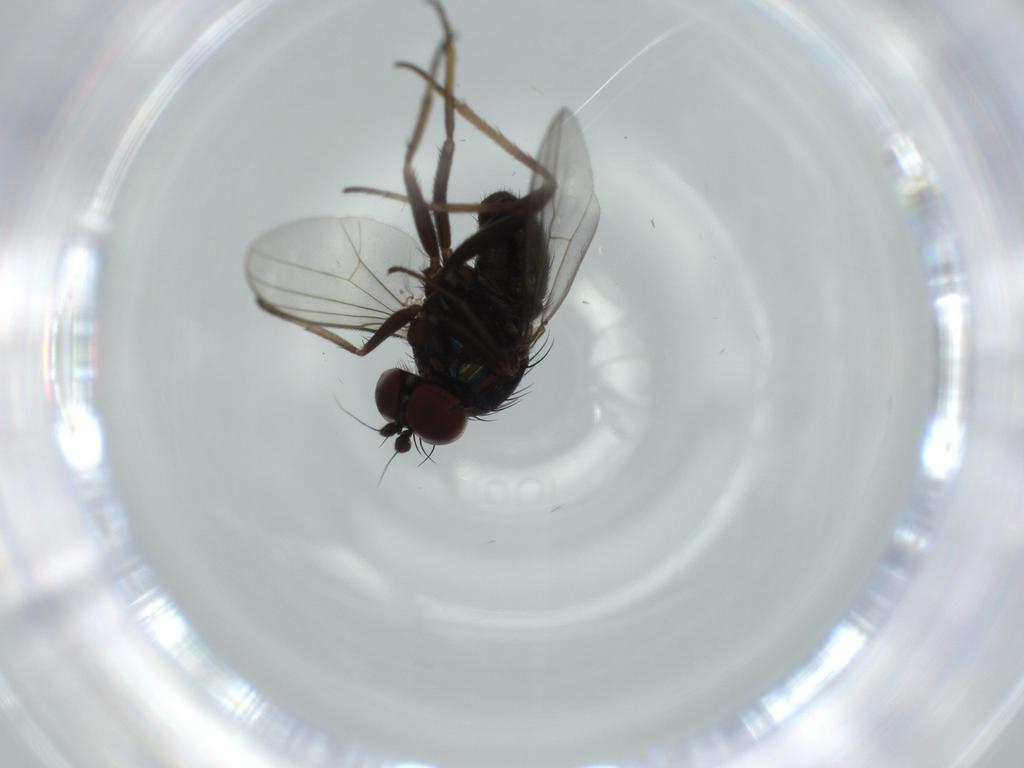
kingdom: Animalia
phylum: Arthropoda
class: Insecta
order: Diptera
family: Dolichopodidae
